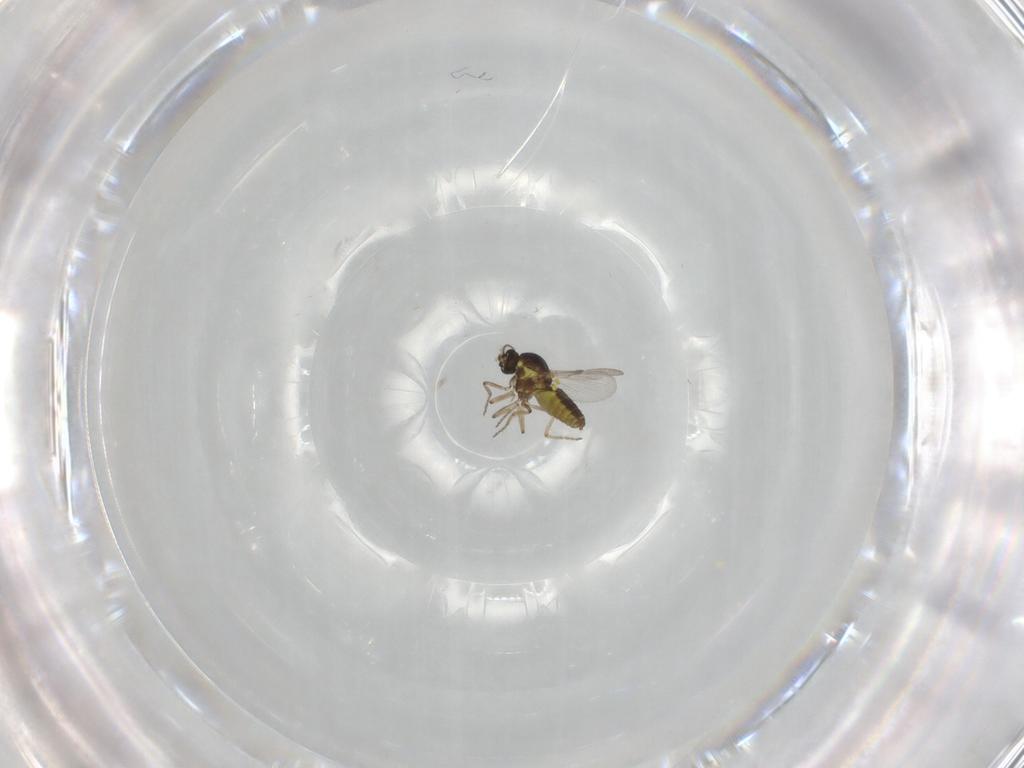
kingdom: Animalia
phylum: Arthropoda
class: Insecta
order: Diptera
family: Ceratopogonidae
